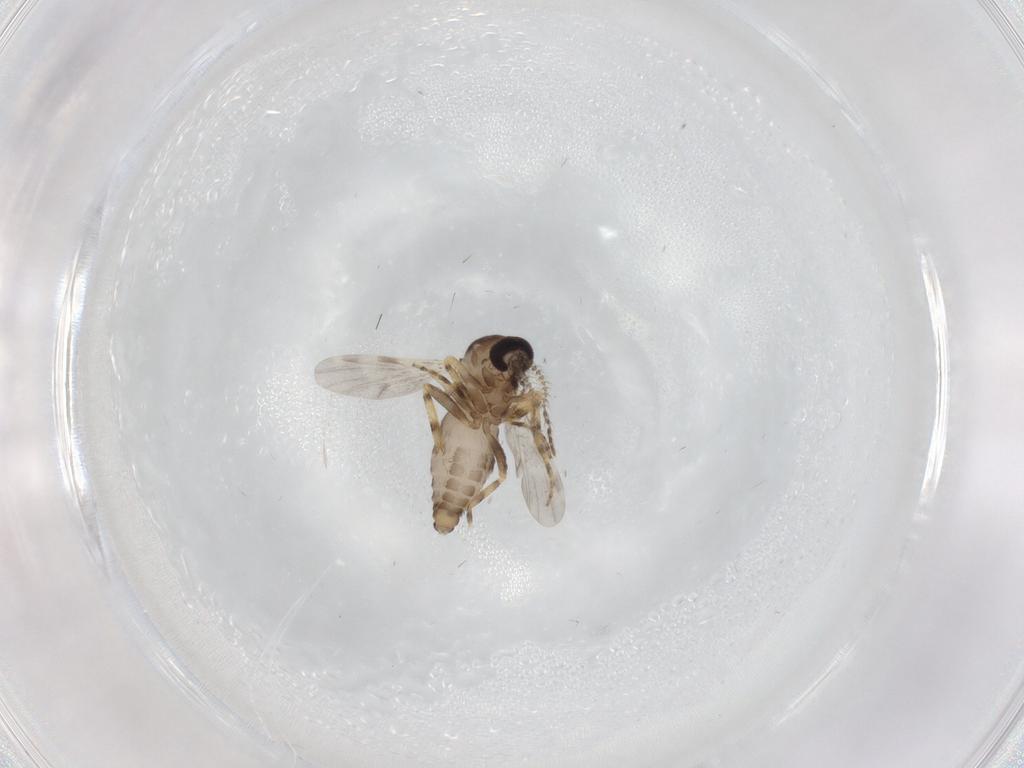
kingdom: Animalia
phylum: Arthropoda
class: Insecta
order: Diptera
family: Ceratopogonidae
